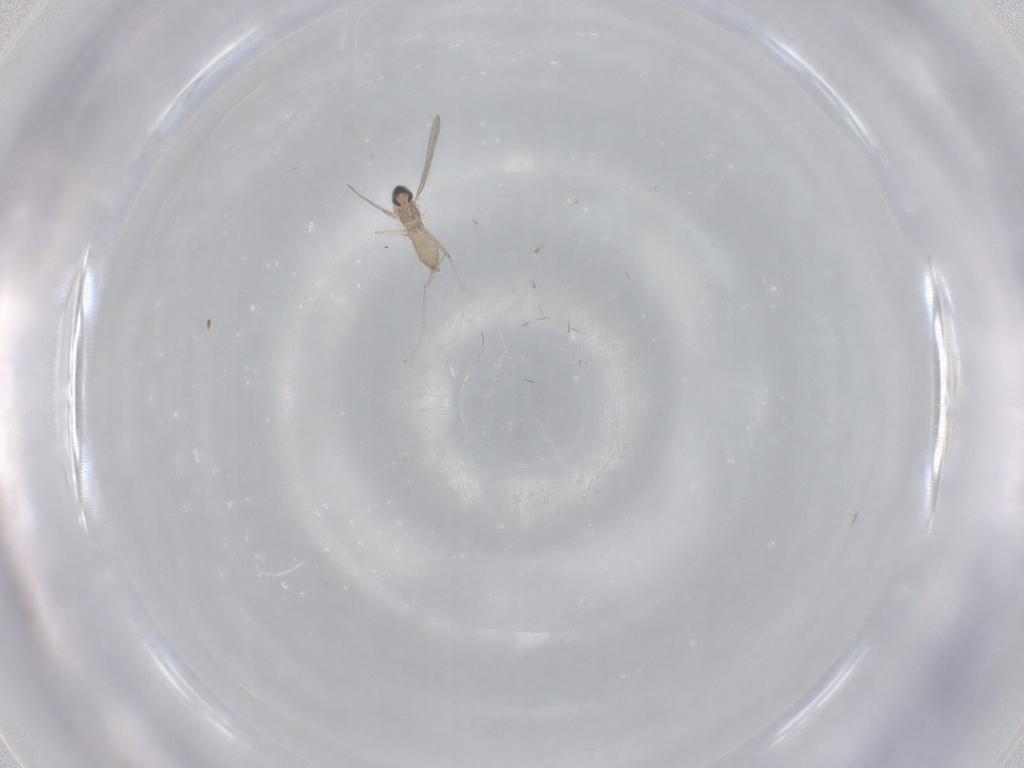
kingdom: Animalia
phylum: Arthropoda
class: Insecta
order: Diptera
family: Cecidomyiidae
